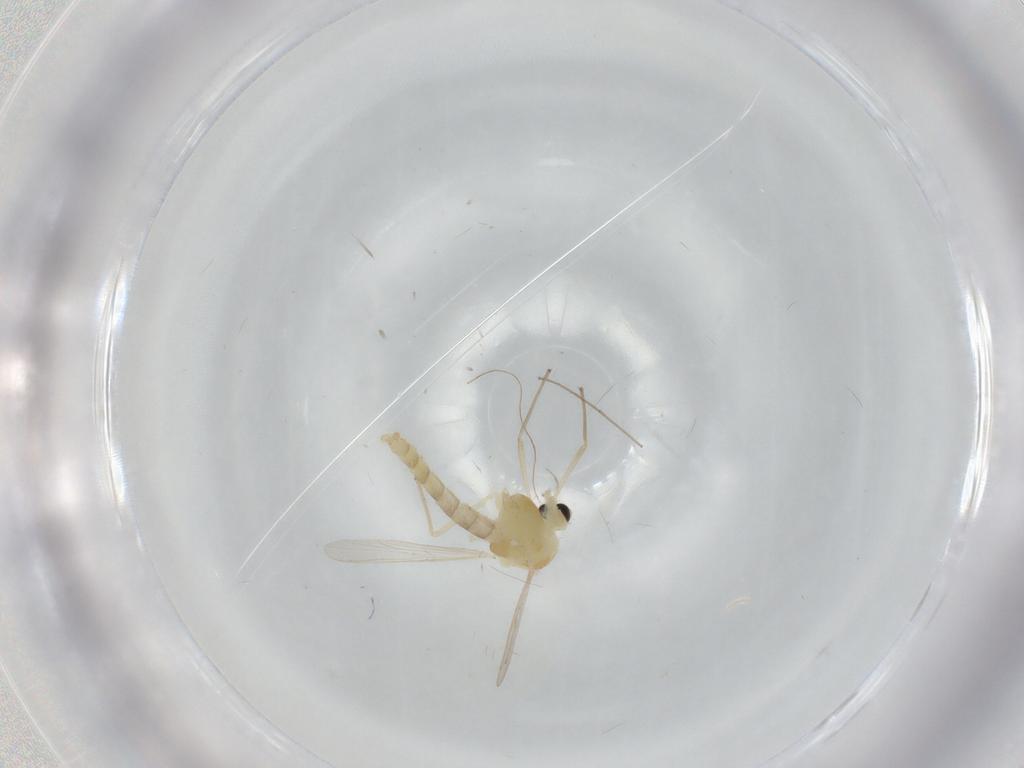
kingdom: Animalia
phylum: Arthropoda
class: Insecta
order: Diptera
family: Chironomidae
